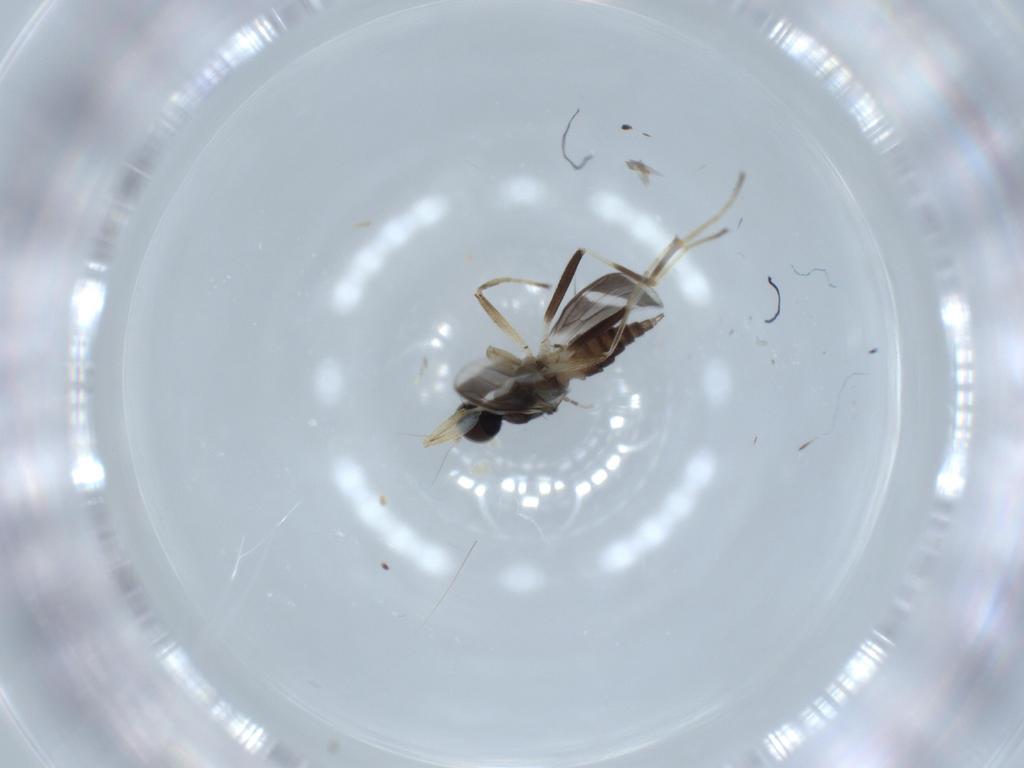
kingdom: Animalia
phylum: Arthropoda
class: Insecta
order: Diptera
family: Hybotidae
